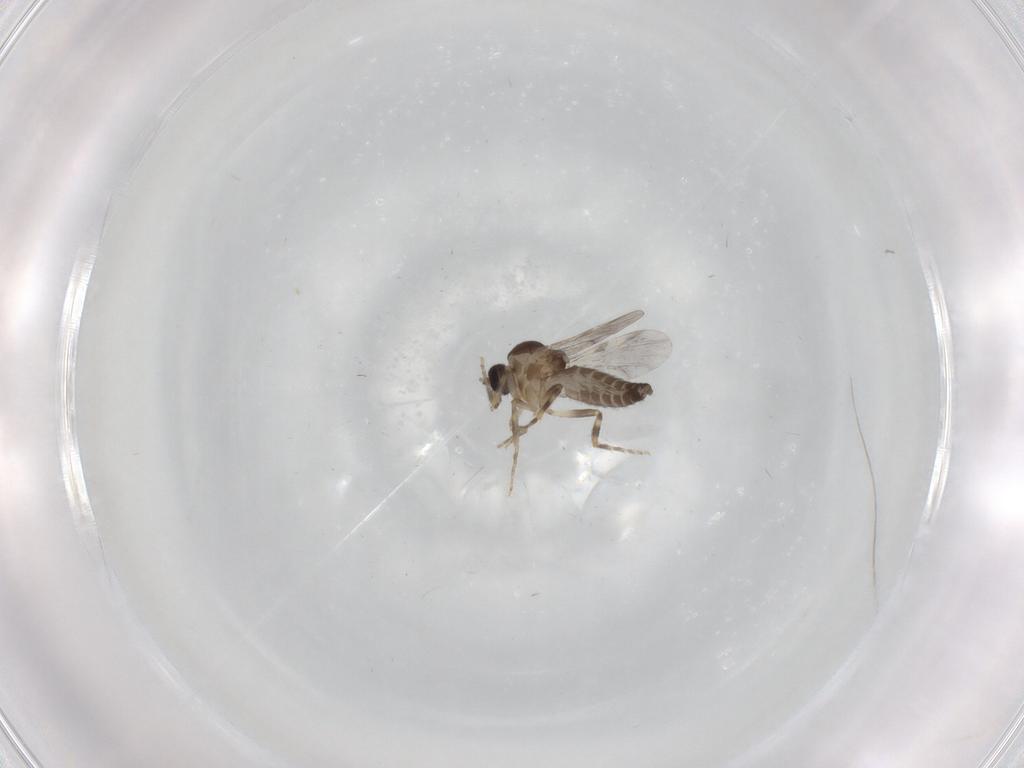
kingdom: Animalia
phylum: Arthropoda
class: Insecta
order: Diptera
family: Ceratopogonidae
